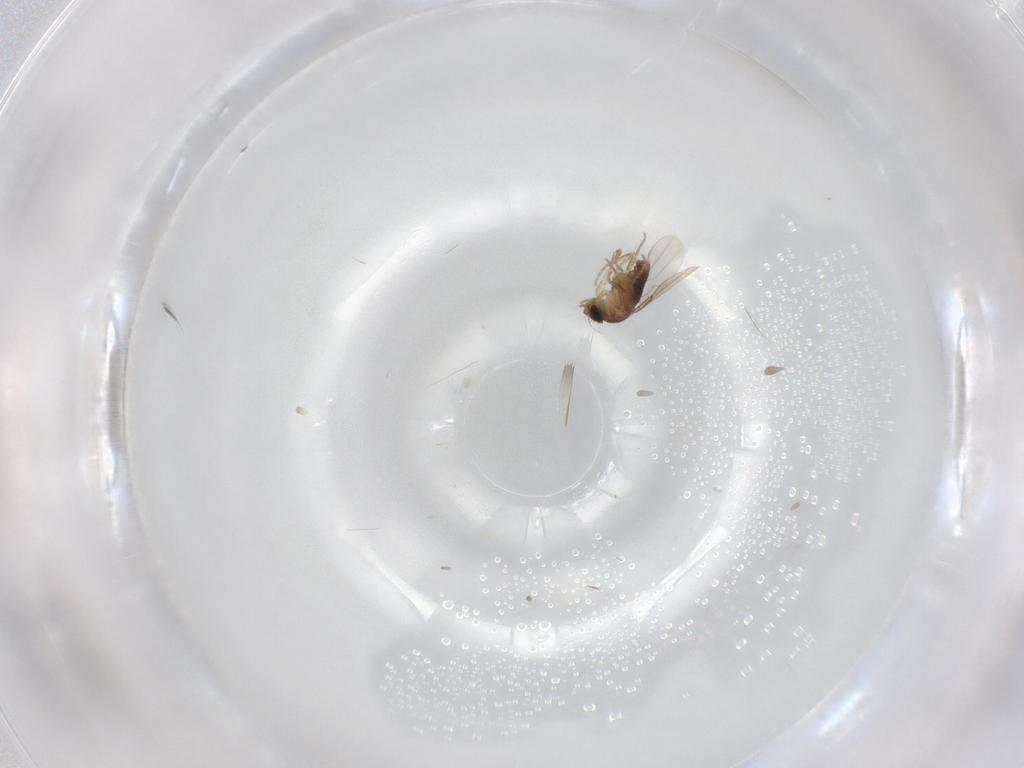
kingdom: Animalia
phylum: Arthropoda
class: Insecta
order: Diptera
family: Phoridae
